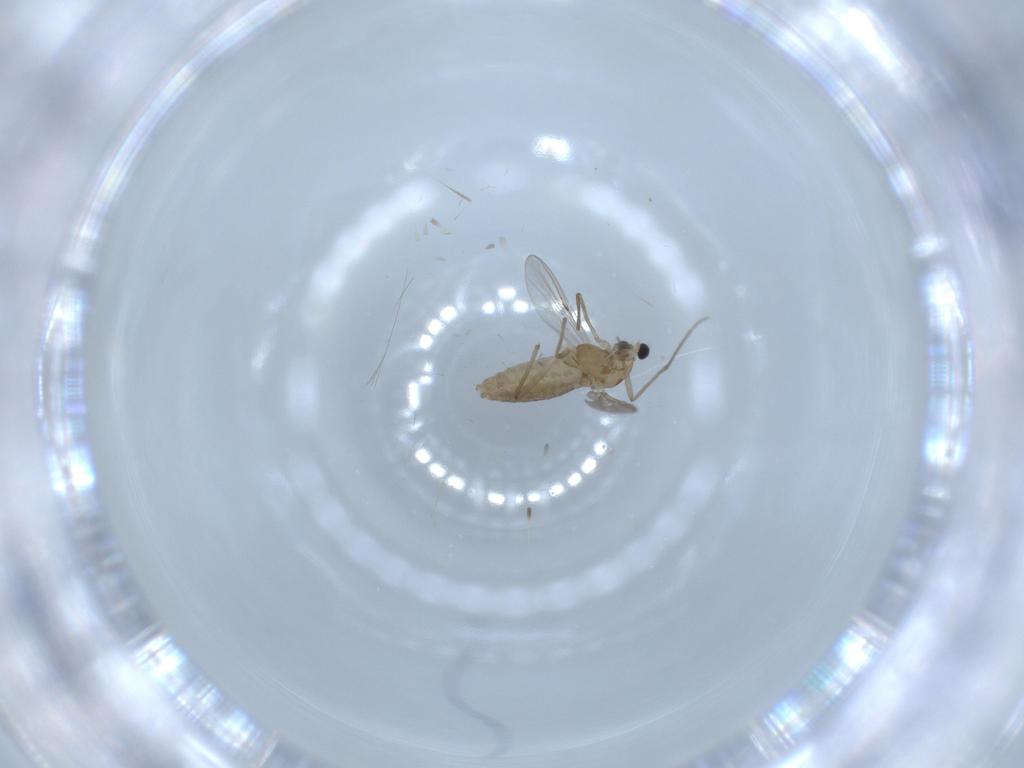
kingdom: Animalia
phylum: Arthropoda
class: Insecta
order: Diptera
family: Chironomidae
